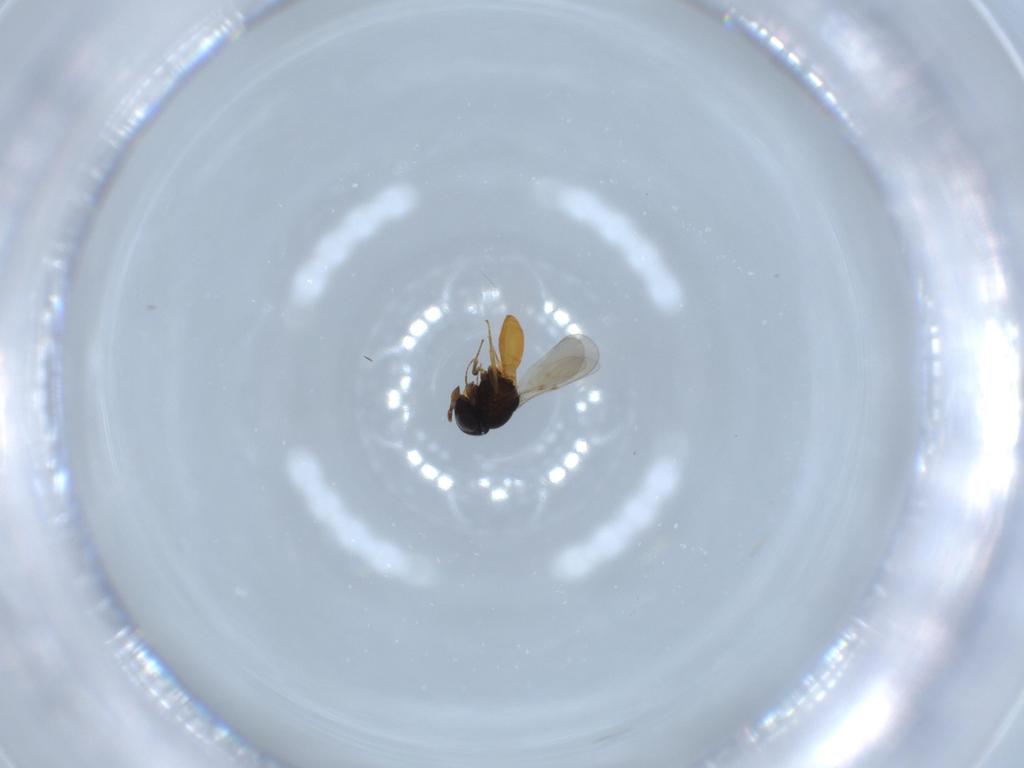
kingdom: Animalia
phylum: Arthropoda
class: Insecta
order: Hymenoptera
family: Scelionidae
